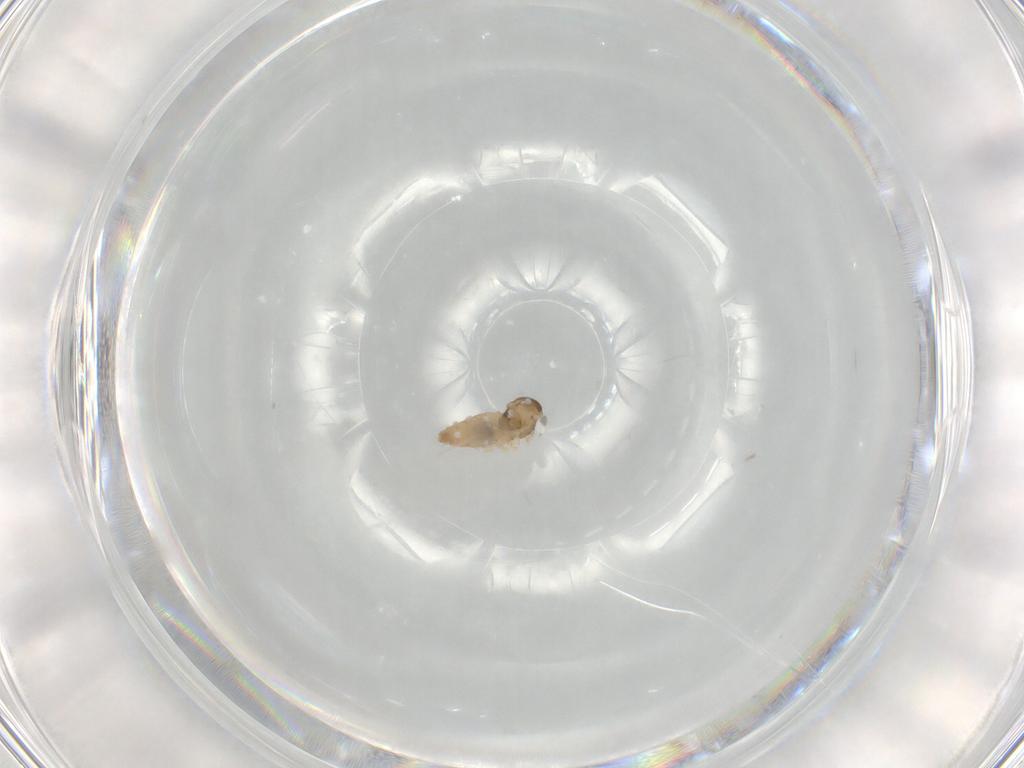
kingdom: Animalia
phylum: Arthropoda
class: Insecta
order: Diptera
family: Cecidomyiidae
